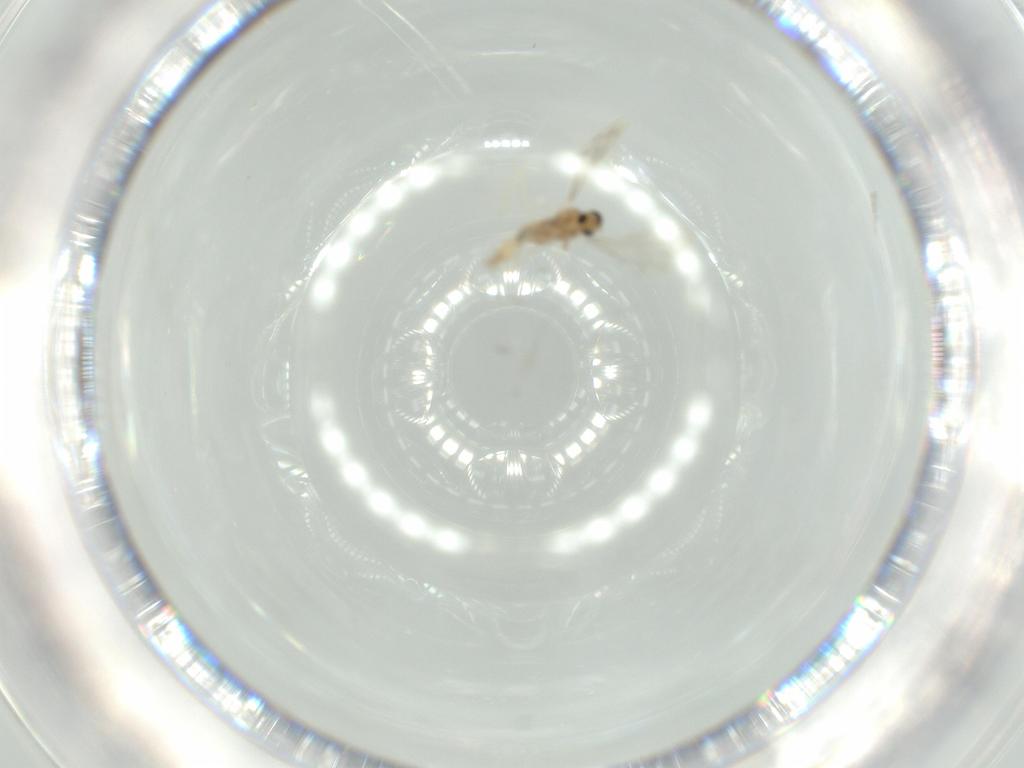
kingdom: Animalia
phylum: Arthropoda
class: Insecta
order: Diptera
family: Cecidomyiidae
